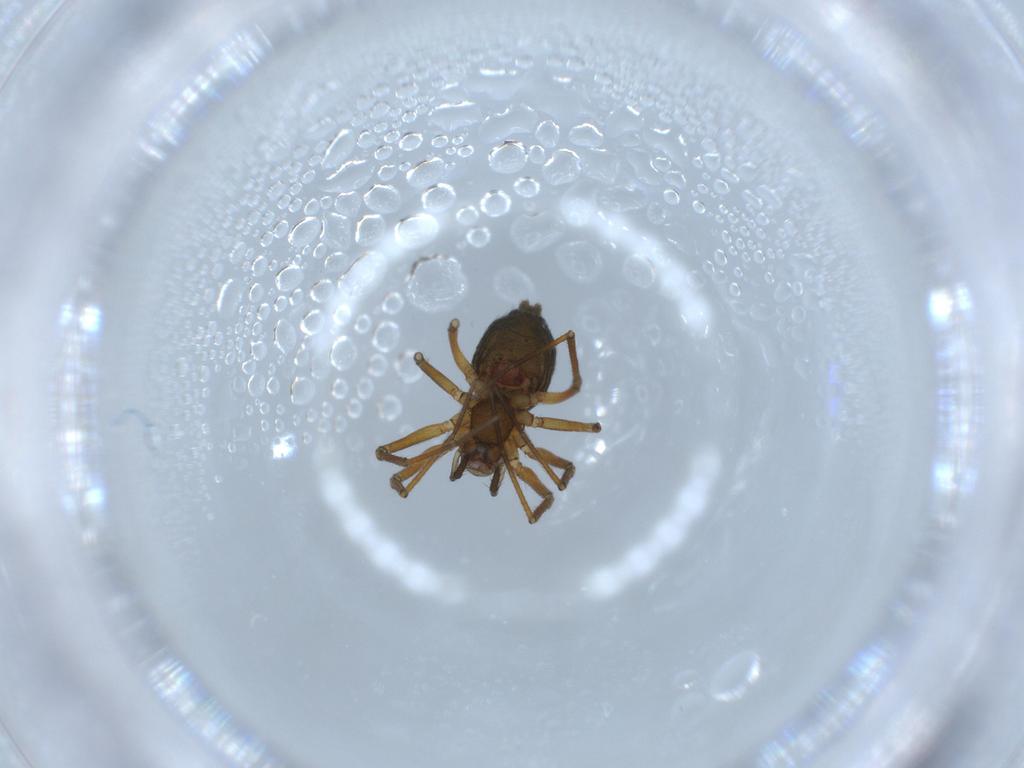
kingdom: Animalia
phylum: Arthropoda
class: Arachnida
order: Araneae
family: Linyphiidae
